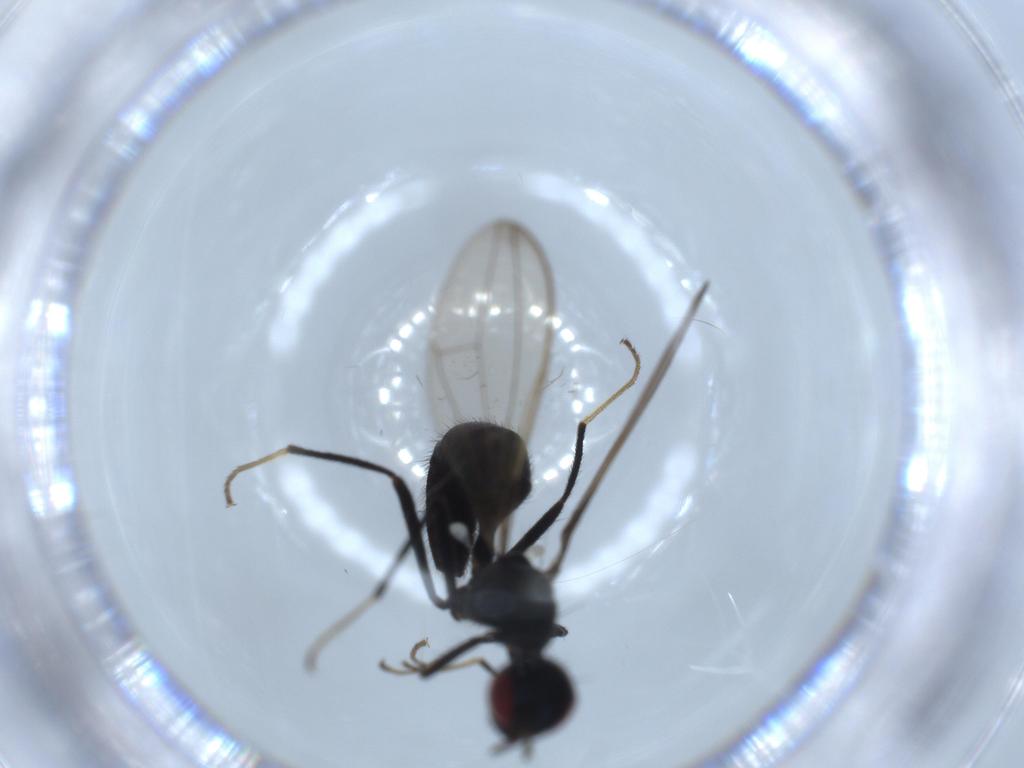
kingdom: Animalia
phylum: Arthropoda
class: Insecta
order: Diptera
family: Richardiidae
